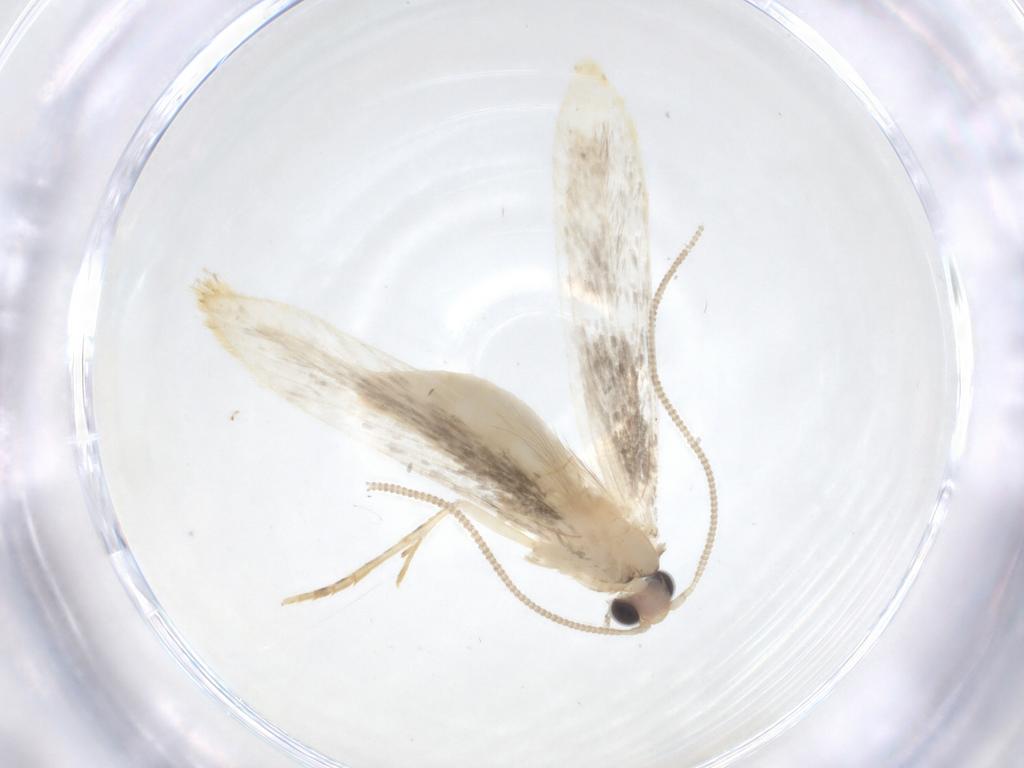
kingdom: Animalia
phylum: Arthropoda
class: Insecta
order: Lepidoptera
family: Tineidae
